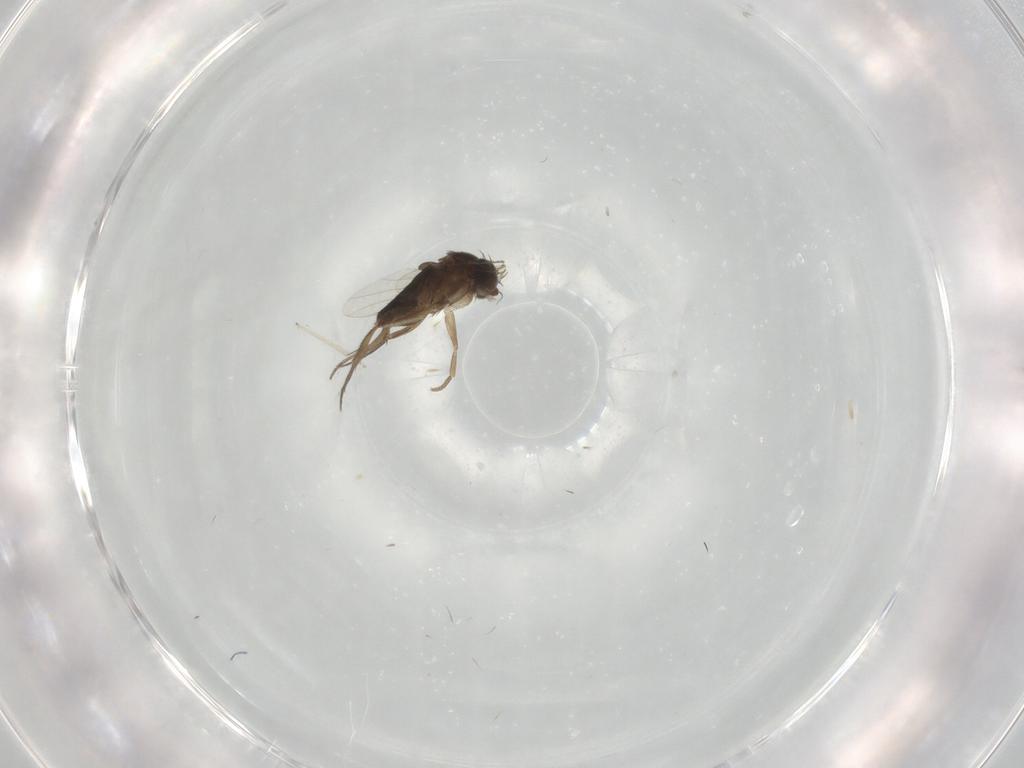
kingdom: Animalia
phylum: Arthropoda
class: Insecta
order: Diptera
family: Phoridae
